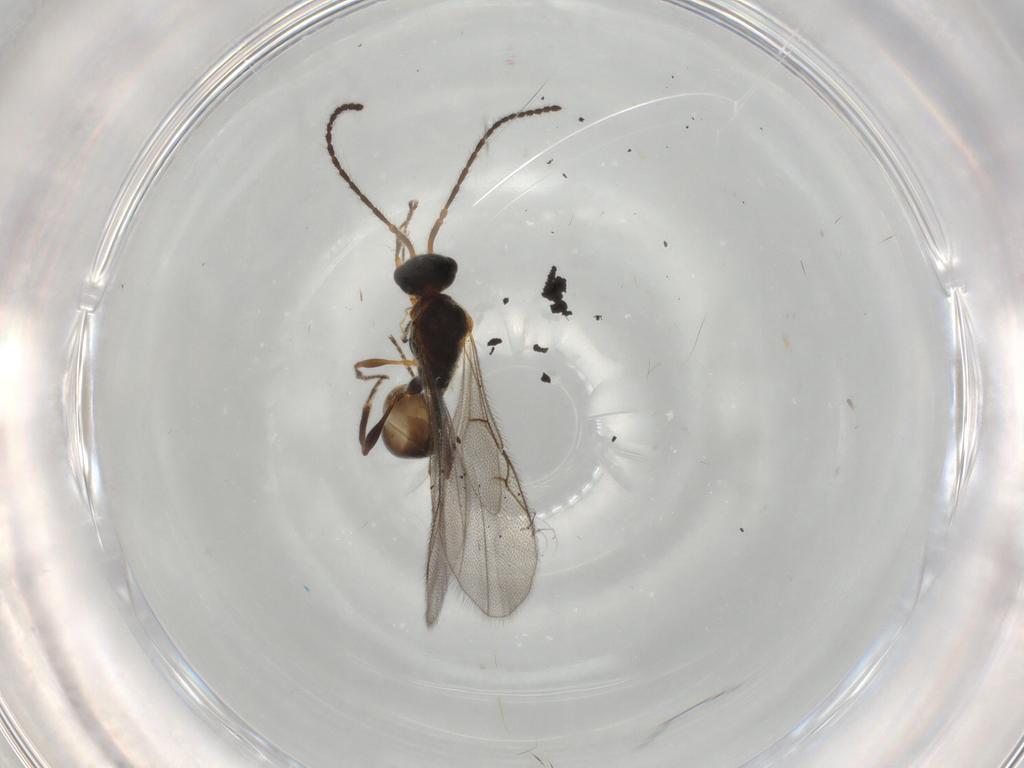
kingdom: Animalia
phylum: Arthropoda
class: Insecta
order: Hymenoptera
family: Diapriidae
